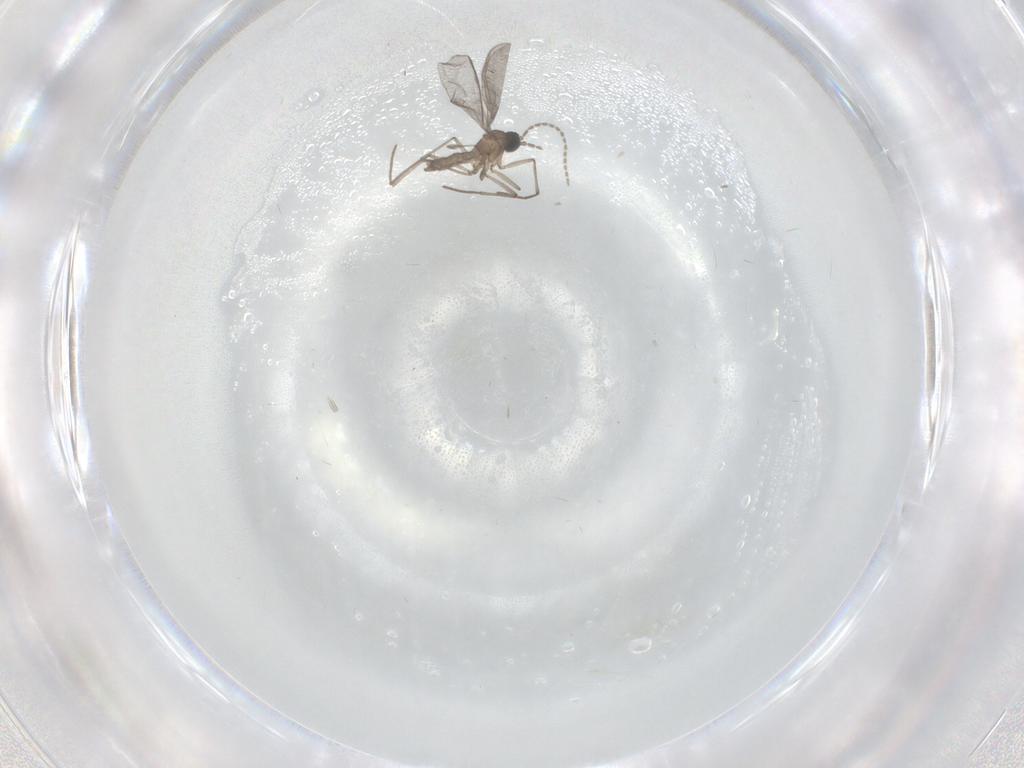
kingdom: Animalia
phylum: Arthropoda
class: Insecta
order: Diptera
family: Sciaridae
